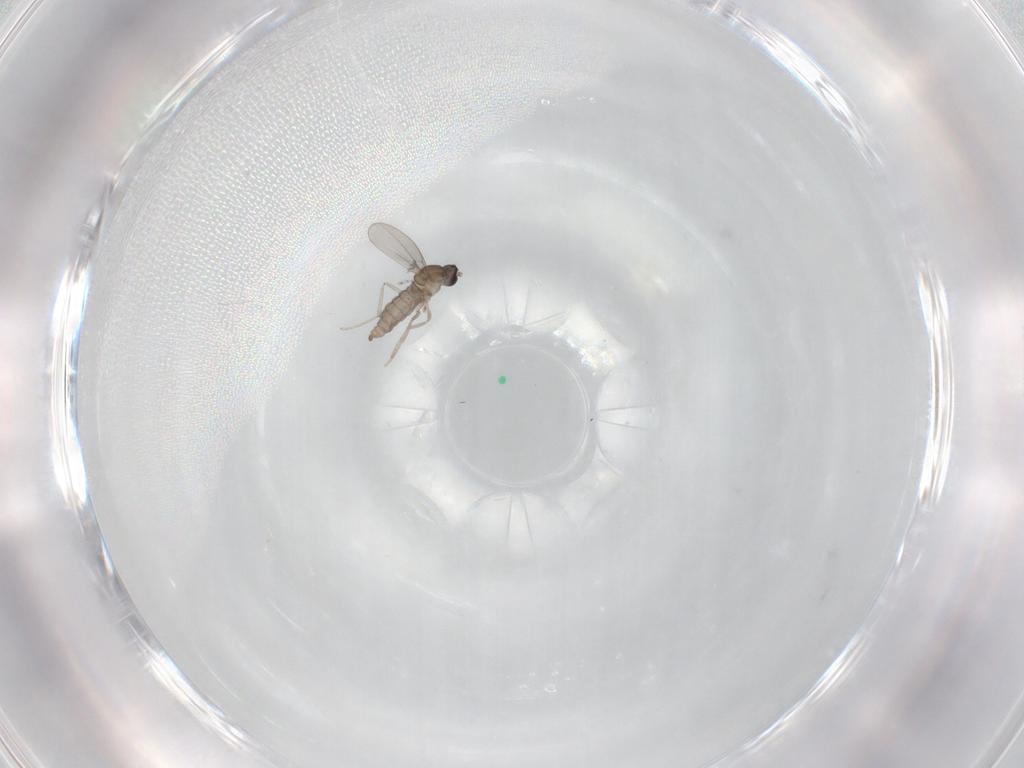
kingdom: Animalia
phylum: Arthropoda
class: Insecta
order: Diptera
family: Cecidomyiidae
